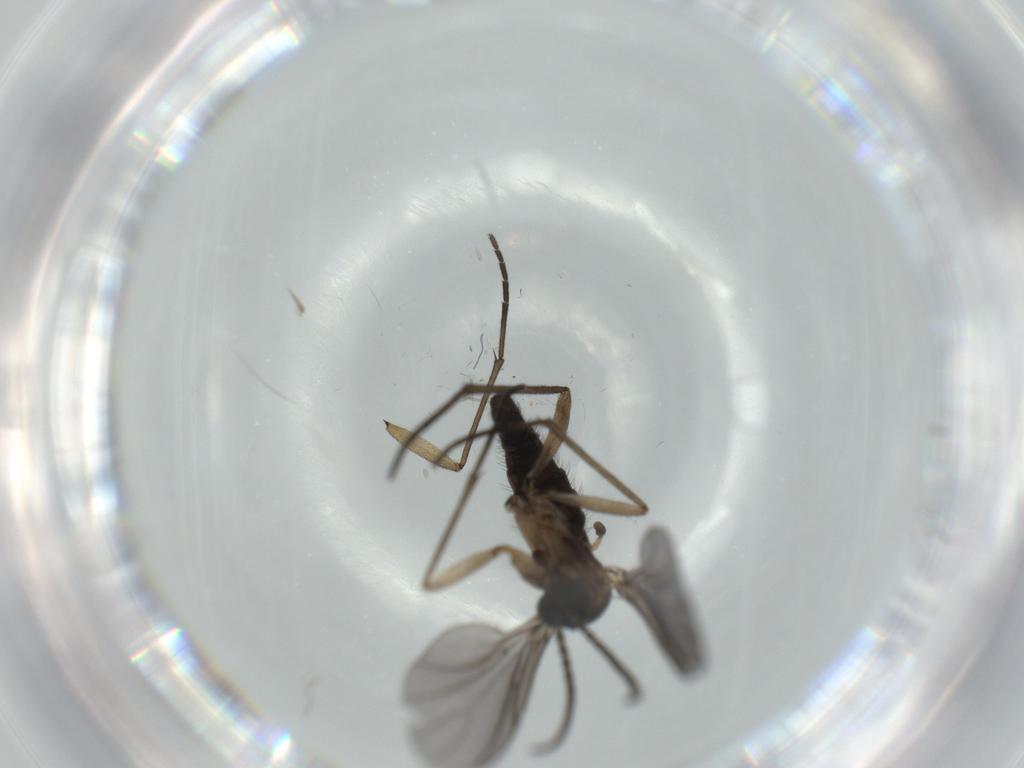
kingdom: Animalia
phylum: Arthropoda
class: Insecta
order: Diptera
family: Sciaridae
